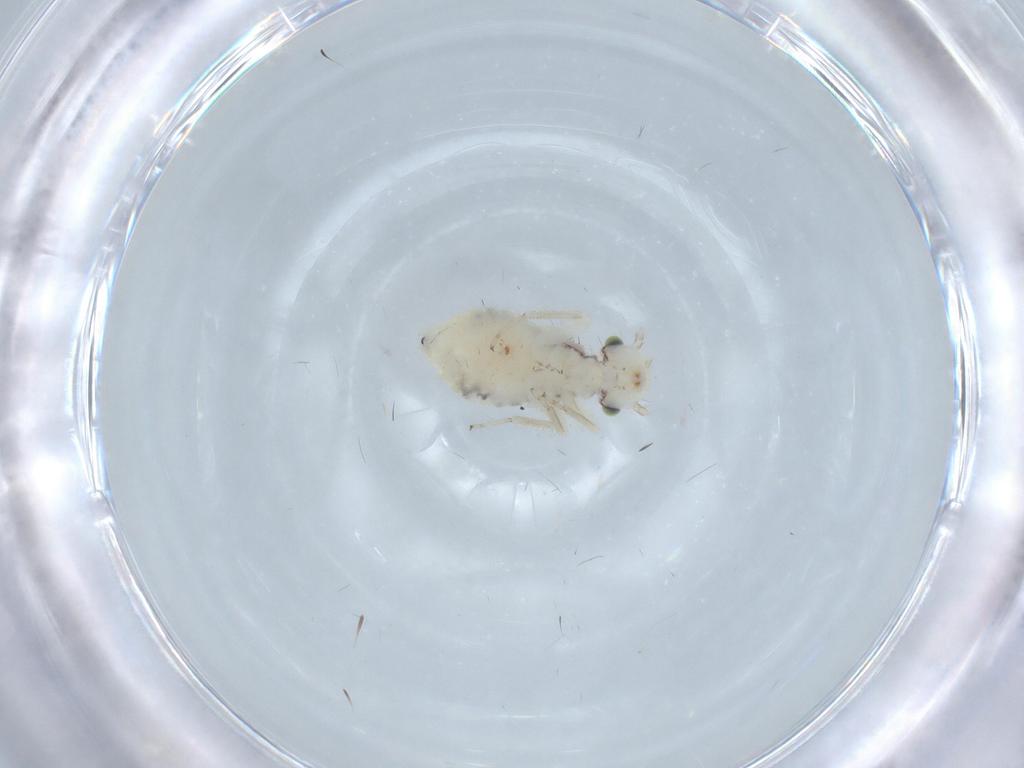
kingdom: Animalia
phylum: Arthropoda
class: Insecta
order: Psocodea
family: Myopsocidae
